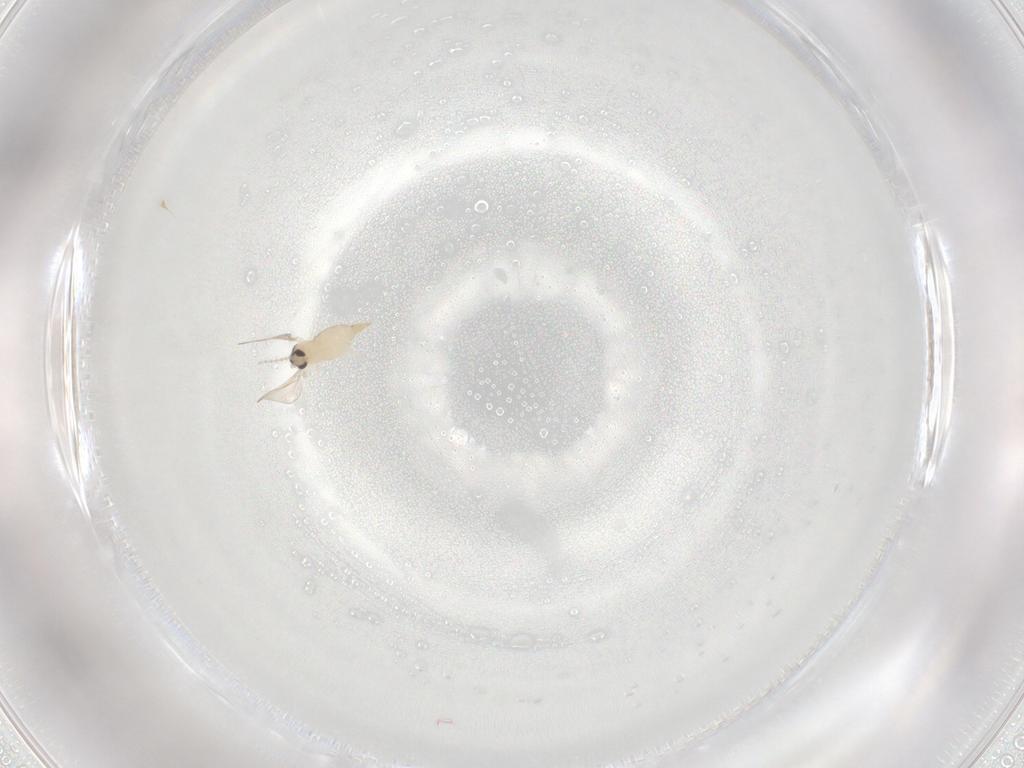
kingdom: Animalia
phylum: Arthropoda
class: Insecta
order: Diptera
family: Cecidomyiidae
